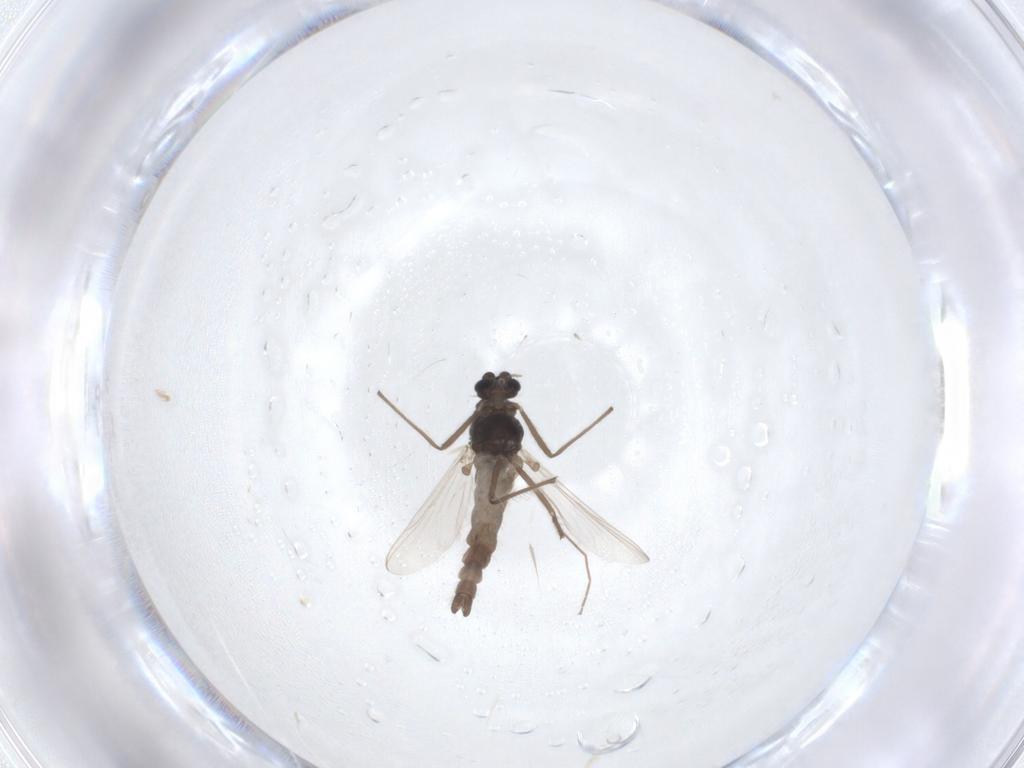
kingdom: Animalia
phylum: Arthropoda
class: Insecta
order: Diptera
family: Chironomidae
